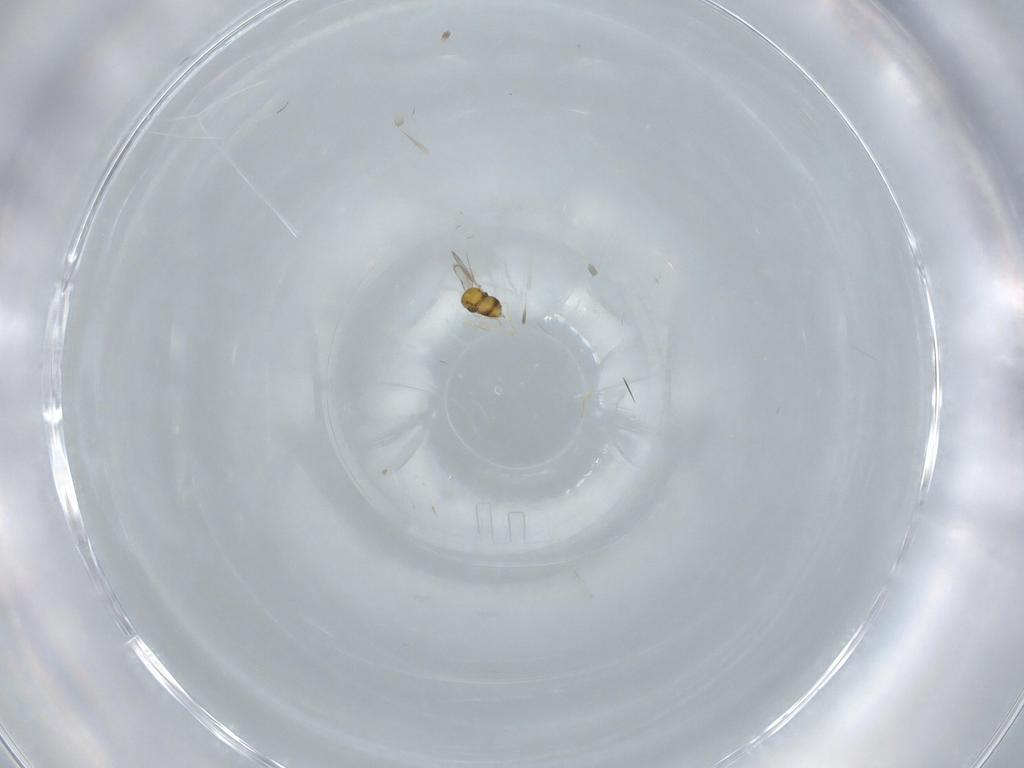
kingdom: Animalia
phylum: Arthropoda
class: Insecta
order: Hymenoptera
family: Aphelinidae
